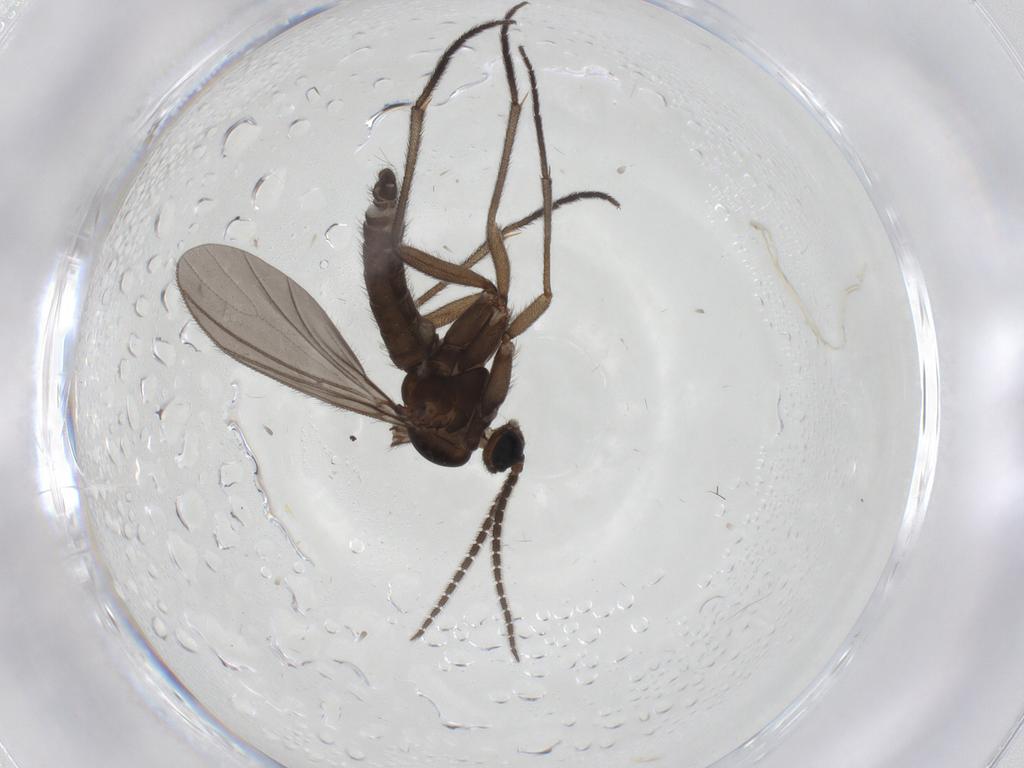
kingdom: Animalia
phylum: Arthropoda
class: Insecta
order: Diptera
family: Sciaridae
